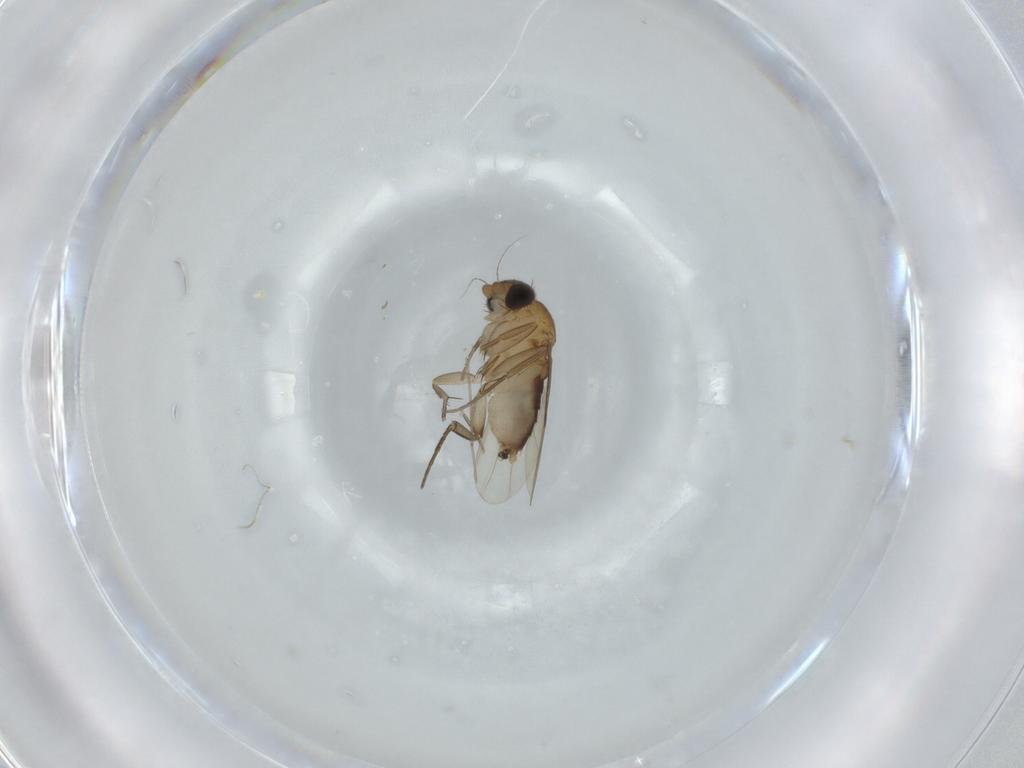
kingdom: Animalia
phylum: Arthropoda
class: Insecta
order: Diptera
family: Phoridae
